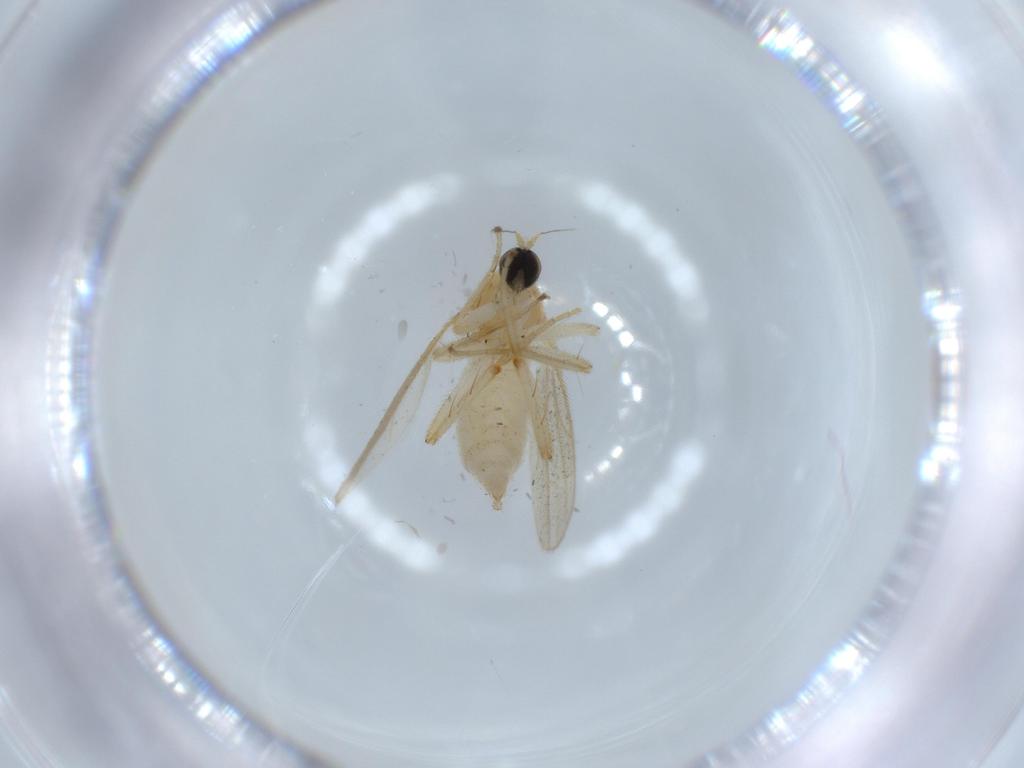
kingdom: Animalia
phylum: Arthropoda
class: Insecta
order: Diptera
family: Hybotidae
